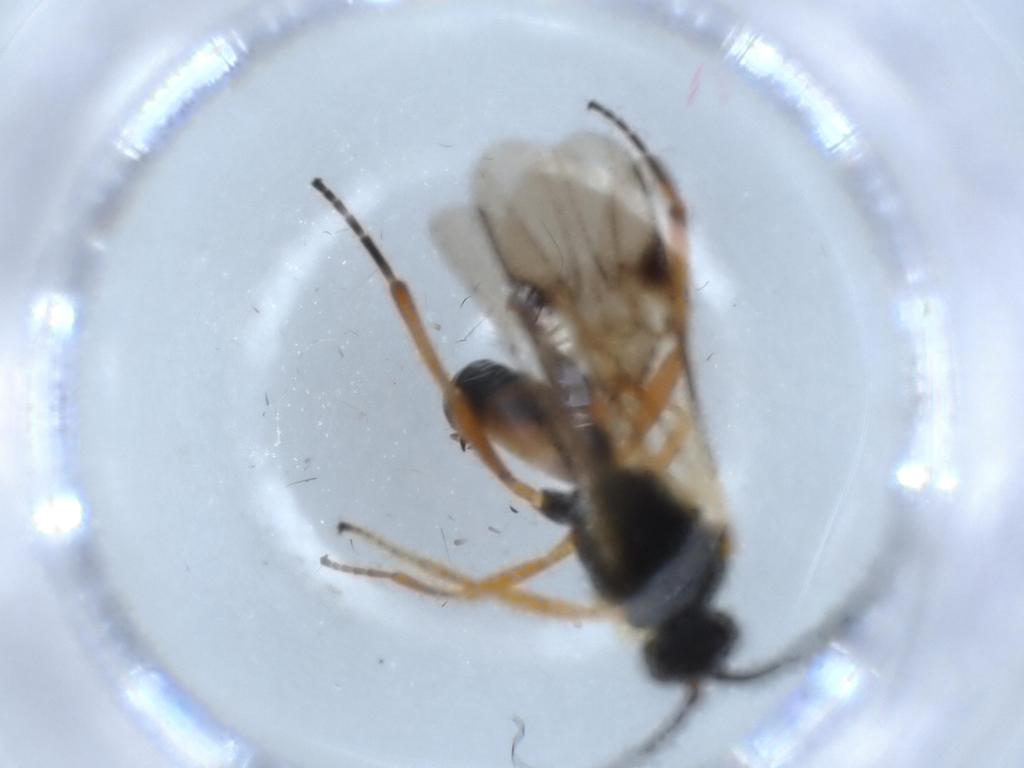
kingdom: Animalia
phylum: Arthropoda
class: Insecta
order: Hymenoptera
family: Braconidae
